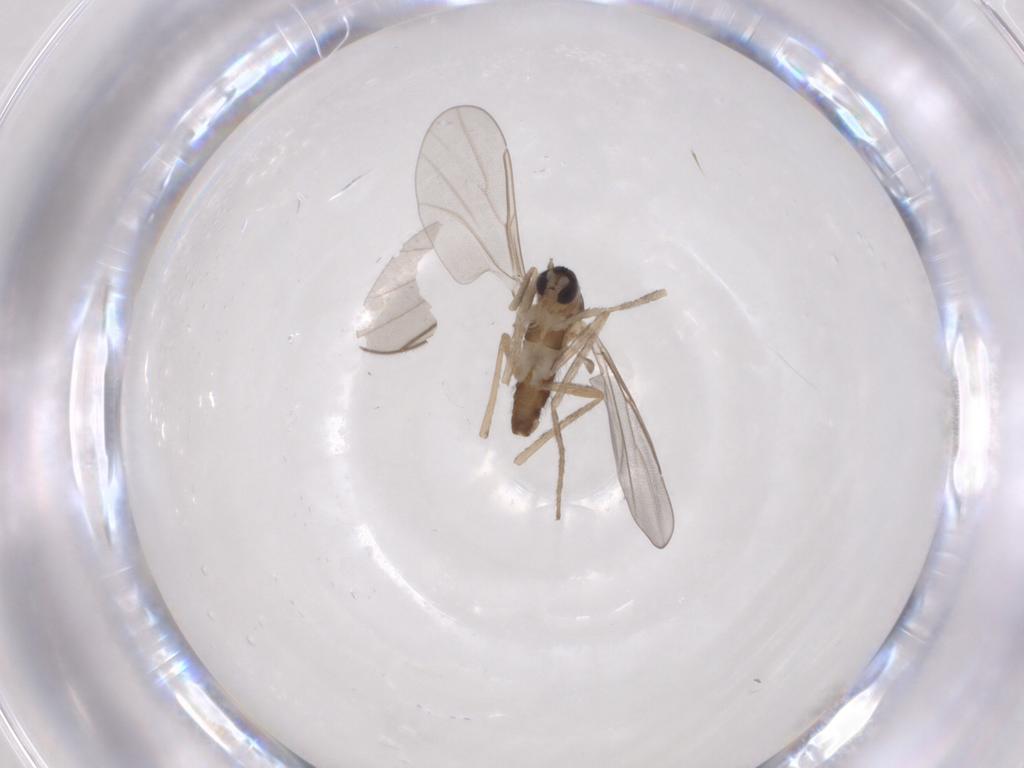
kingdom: Animalia
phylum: Arthropoda
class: Insecta
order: Diptera
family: Cecidomyiidae
